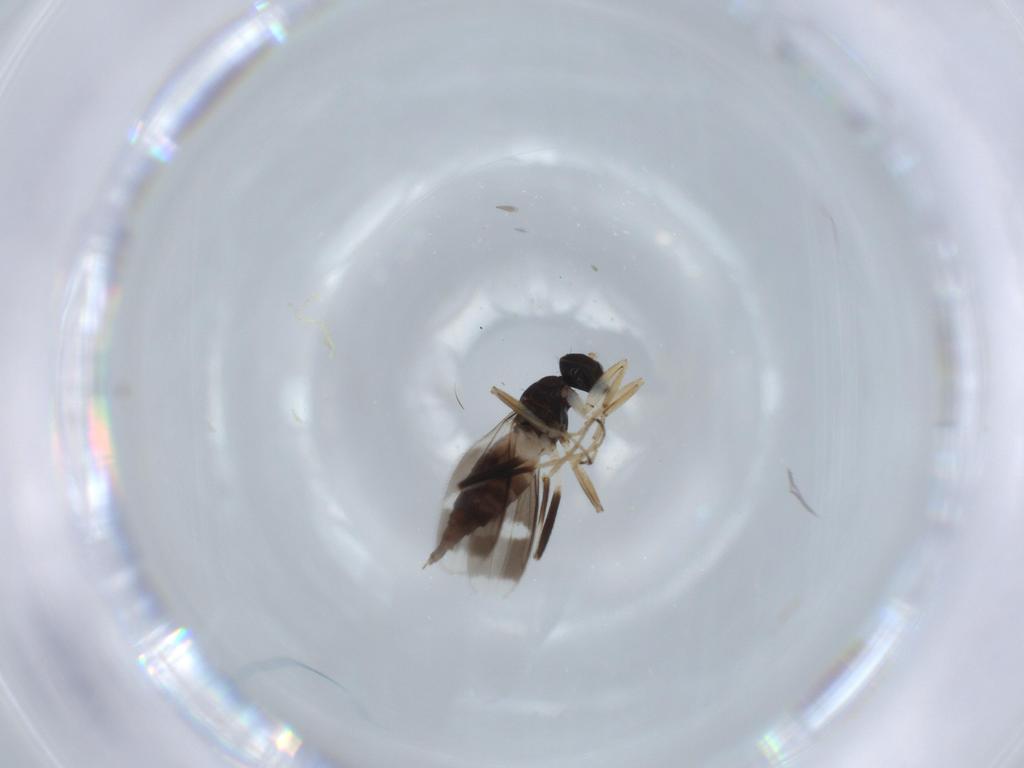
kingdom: Animalia
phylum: Arthropoda
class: Insecta
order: Diptera
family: Hybotidae
